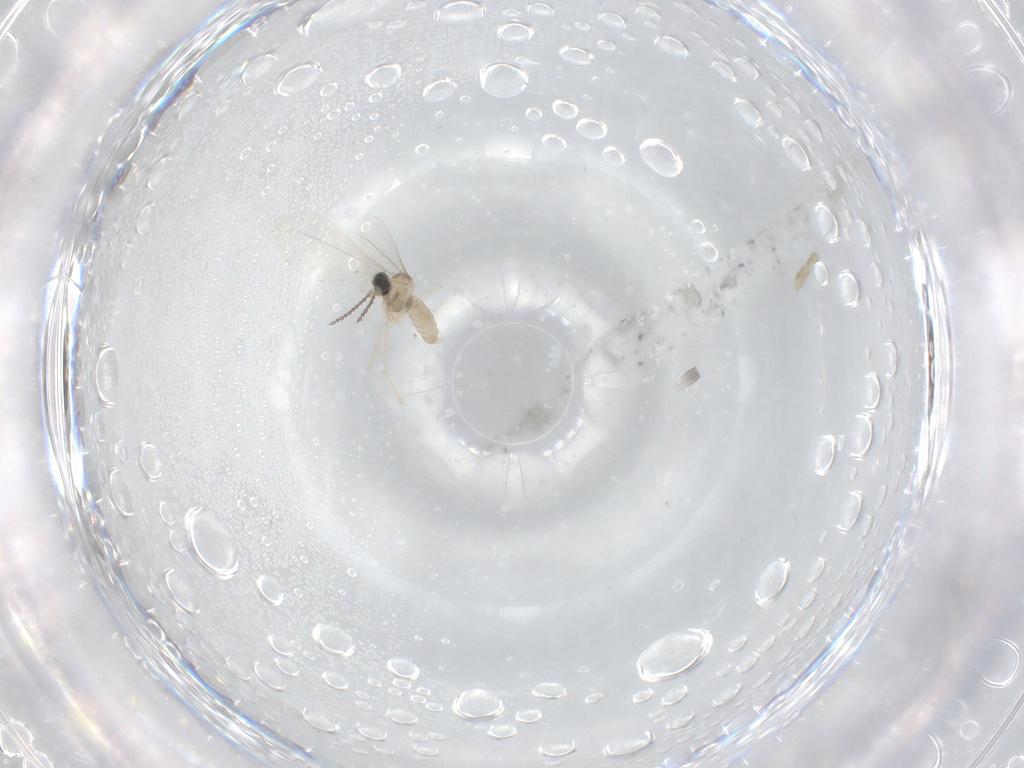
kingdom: Animalia
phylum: Arthropoda
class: Insecta
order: Diptera
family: Cecidomyiidae
